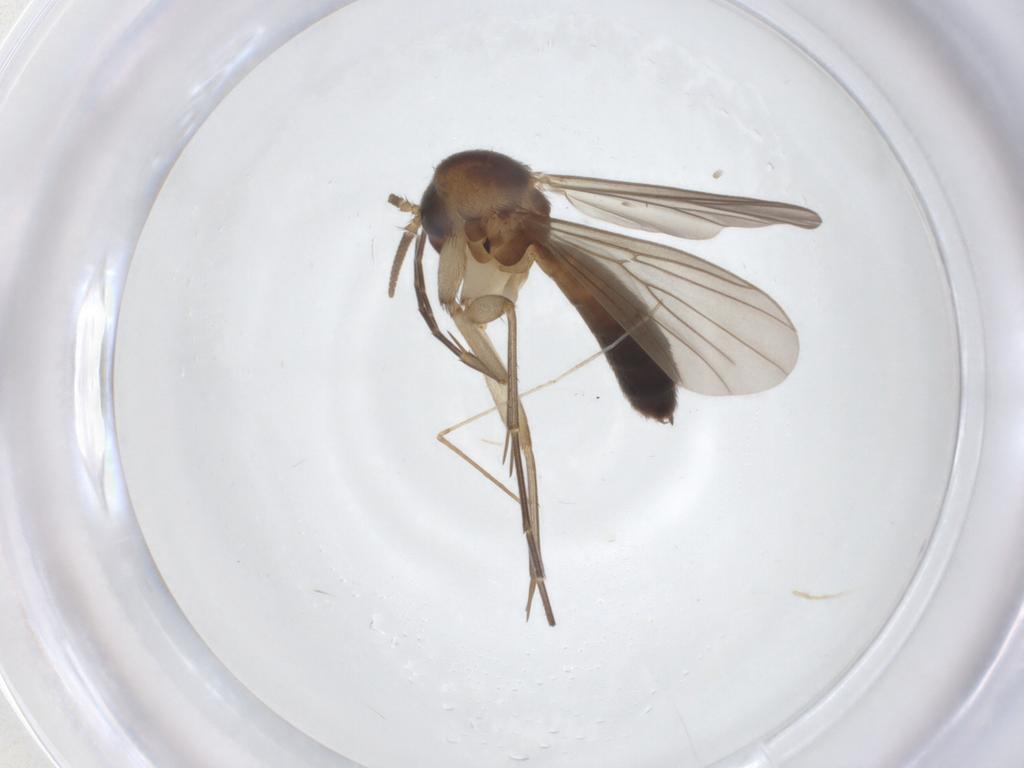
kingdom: Animalia
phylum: Arthropoda
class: Insecta
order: Diptera
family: Mycetophilidae
